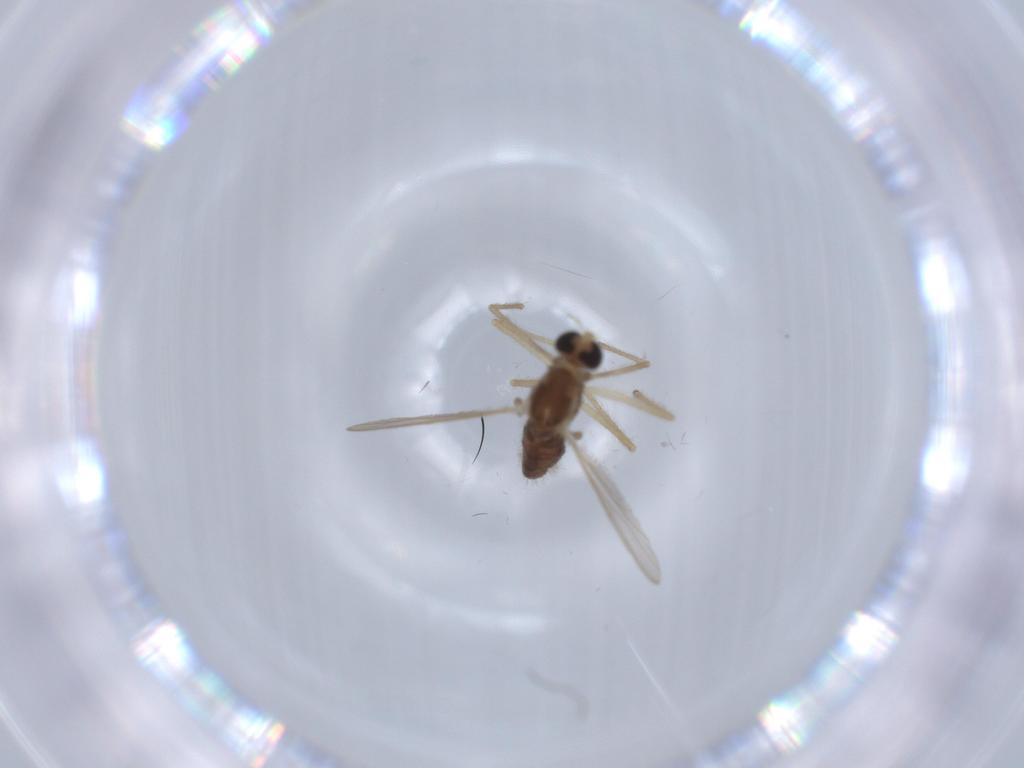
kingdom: Animalia
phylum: Arthropoda
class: Insecta
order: Diptera
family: Chironomidae
